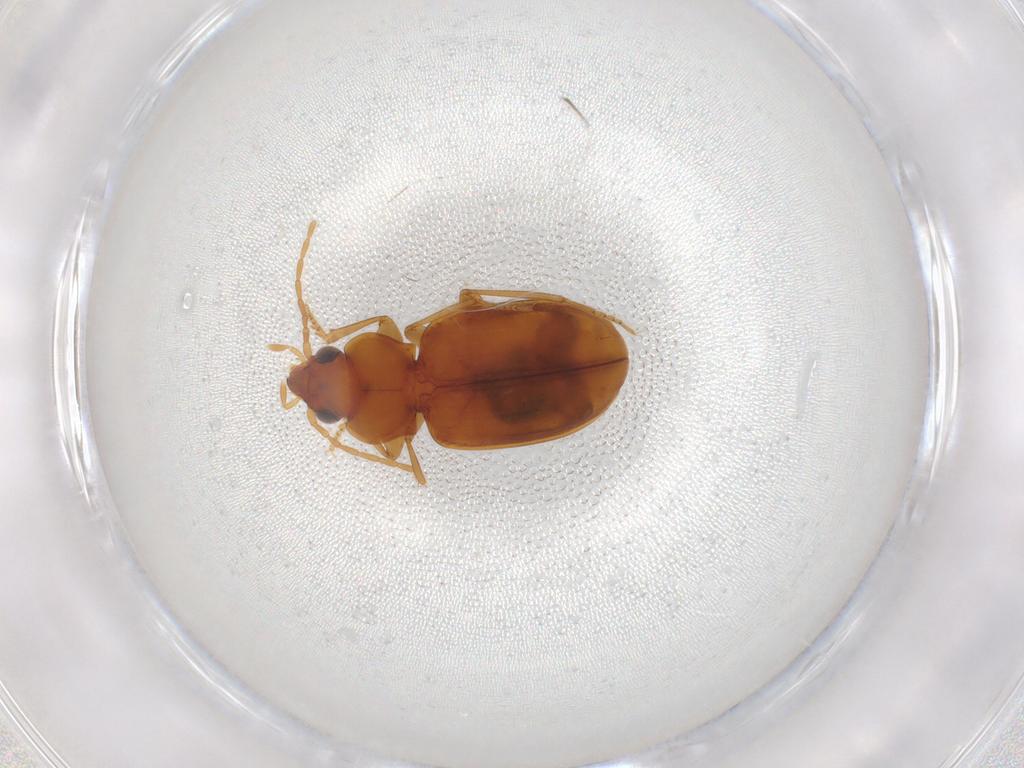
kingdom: Animalia
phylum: Arthropoda
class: Insecta
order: Coleoptera
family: Carabidae
